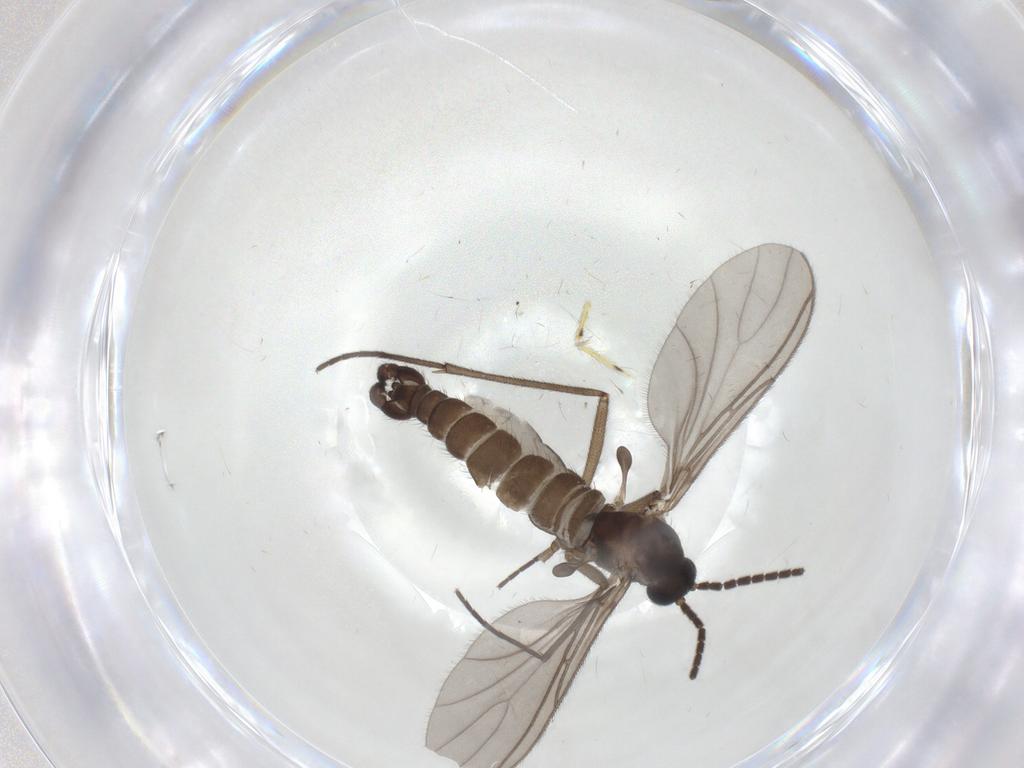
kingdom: Animalia
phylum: Arthropoda
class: Insecta
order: Diptera
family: Sciaridae
